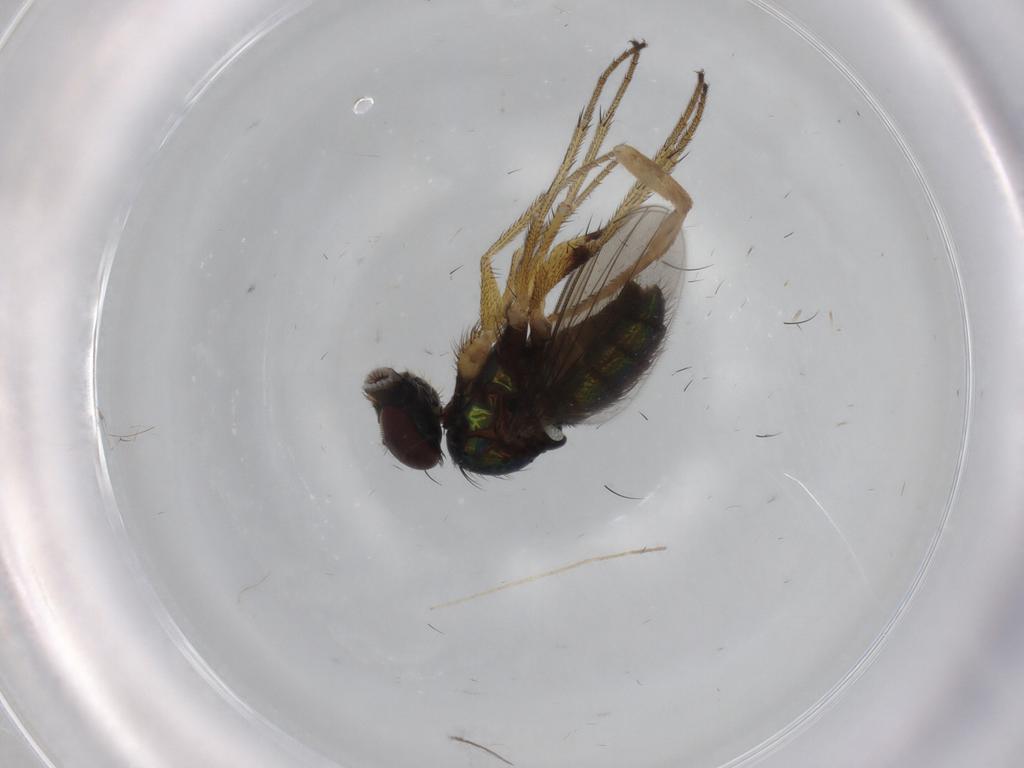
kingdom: Animalia
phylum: Arthropoda
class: Insecta
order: Diptera
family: Dolichopodidae
